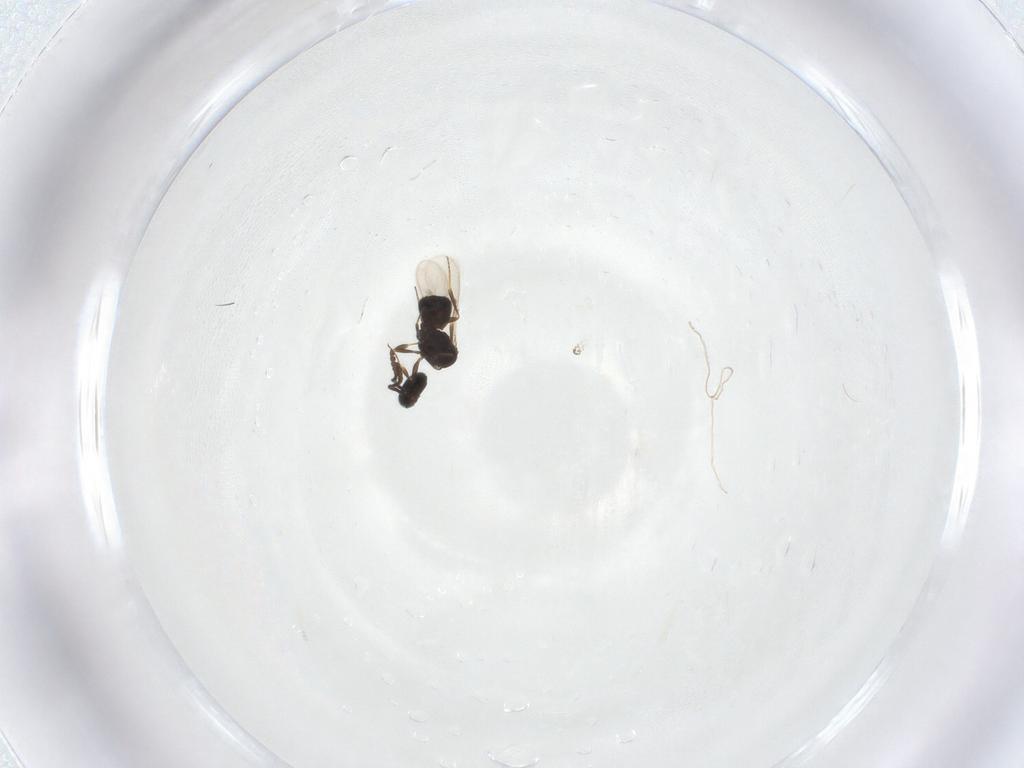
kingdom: Animalia
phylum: Arthropoda
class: Insecta
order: Hymenoptera
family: Scelionidae
